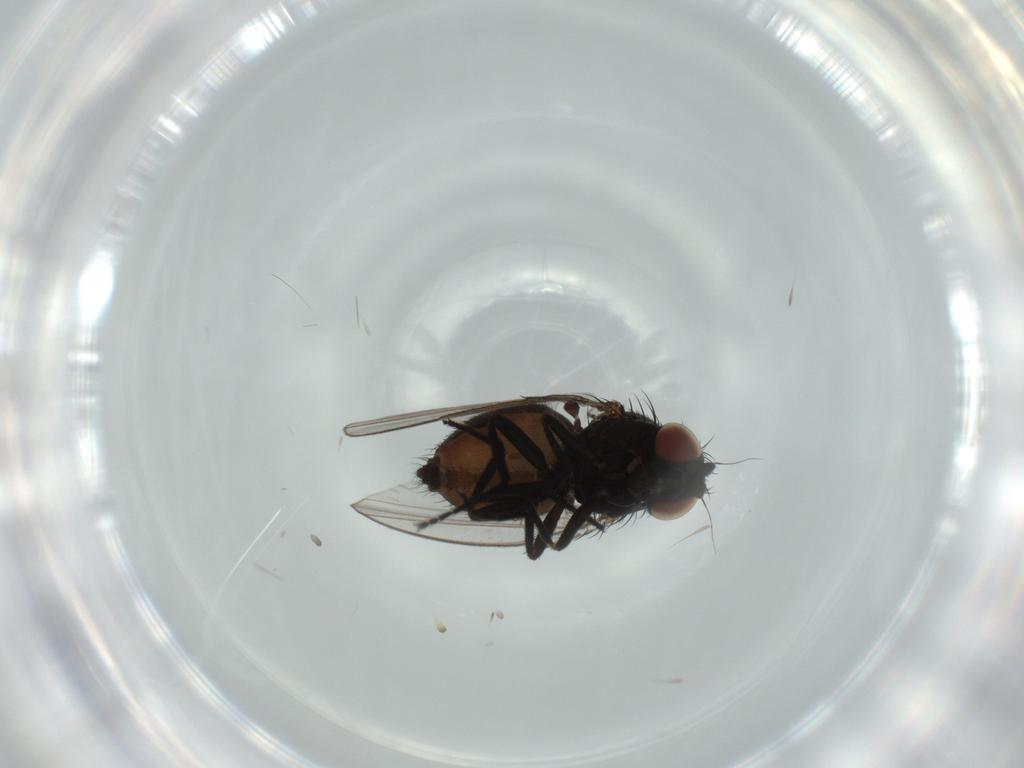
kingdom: Animalia
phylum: Arthropoda
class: Insecta
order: Diptera
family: Milichiidae
